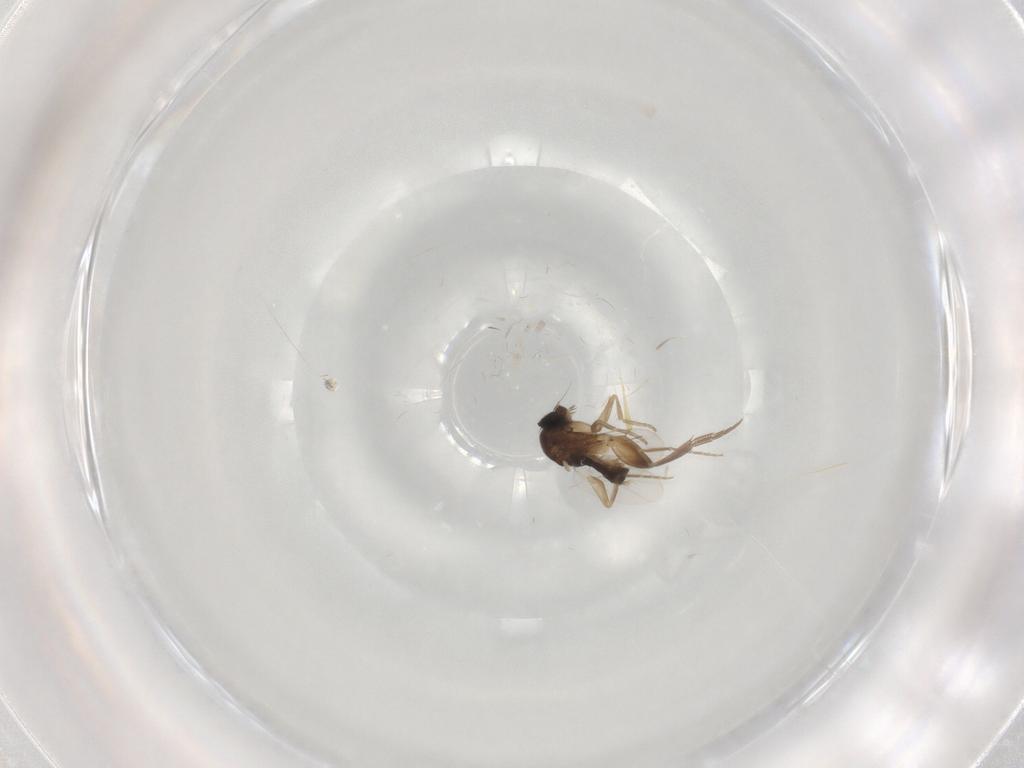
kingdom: Animalia
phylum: Arthropoda
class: Insecta
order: Diptera
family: Phoridae
